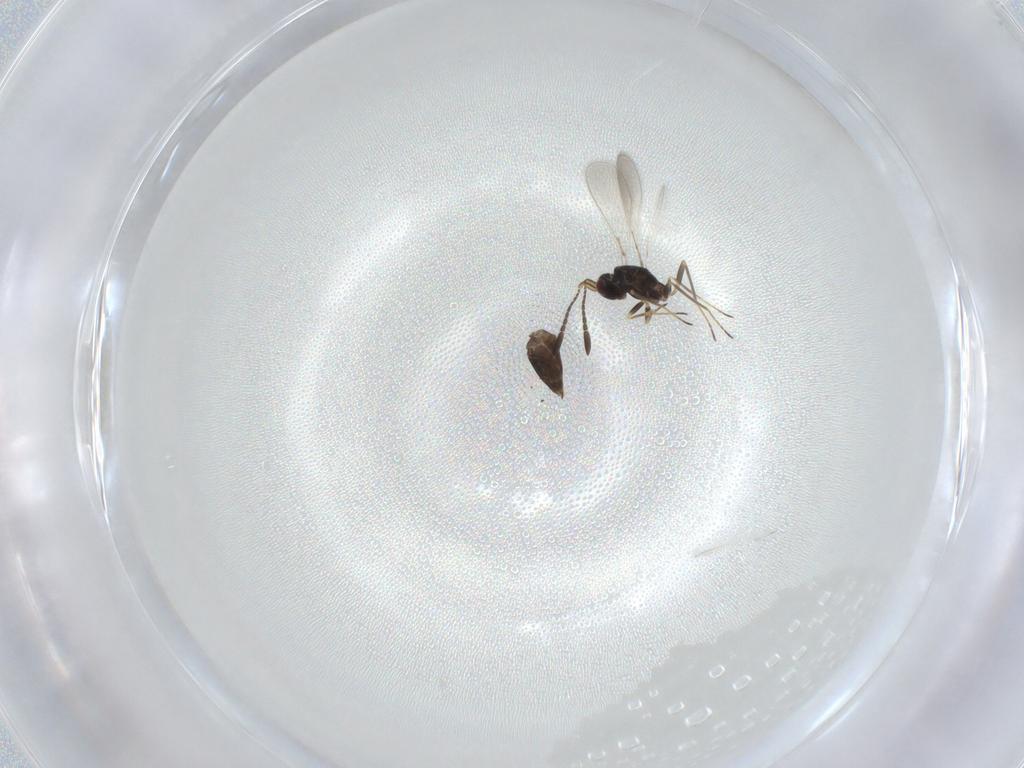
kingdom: Animalia
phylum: Arthropoda
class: Insecta
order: Hymenoptera
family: Mymaridae
